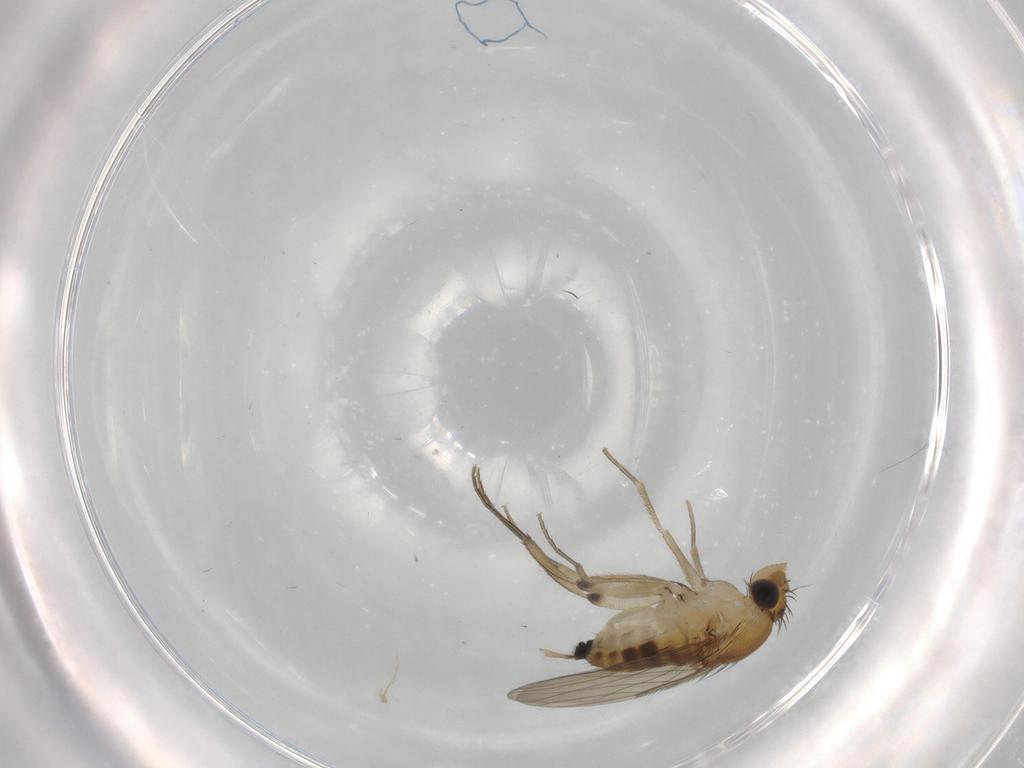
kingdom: Animalia
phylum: Arthropoda
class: Insecta
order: Diptera
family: Phoridae
